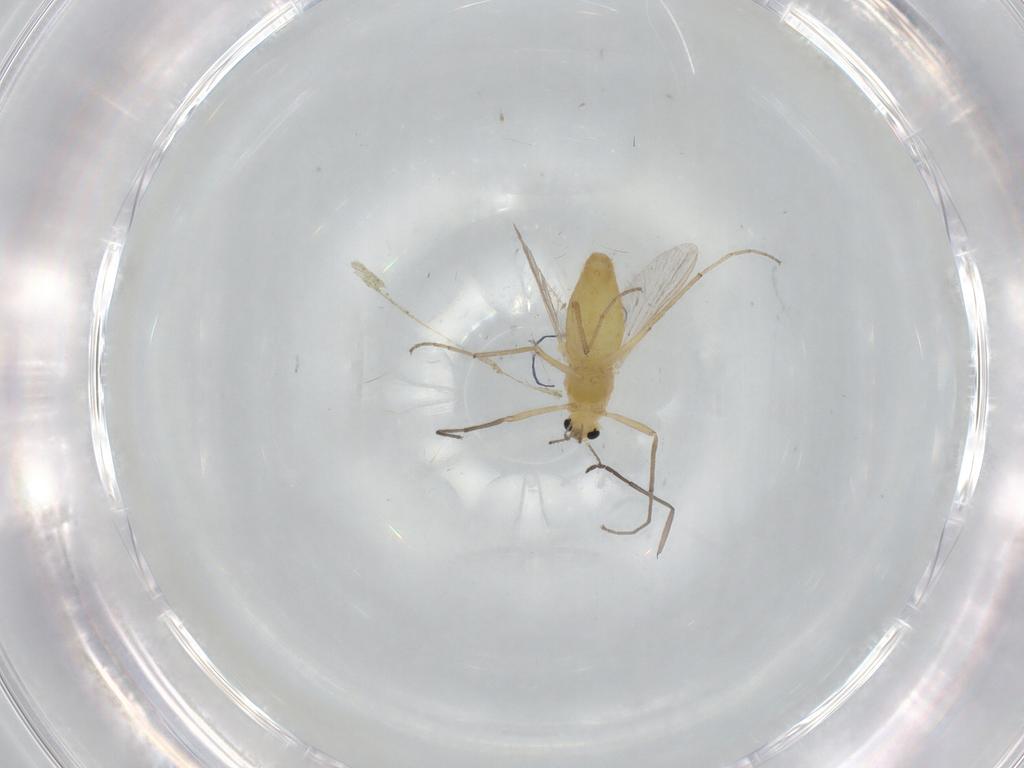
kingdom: Animalia
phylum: Arthropoda
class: Insecta
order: Diptera
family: Chironomidae
